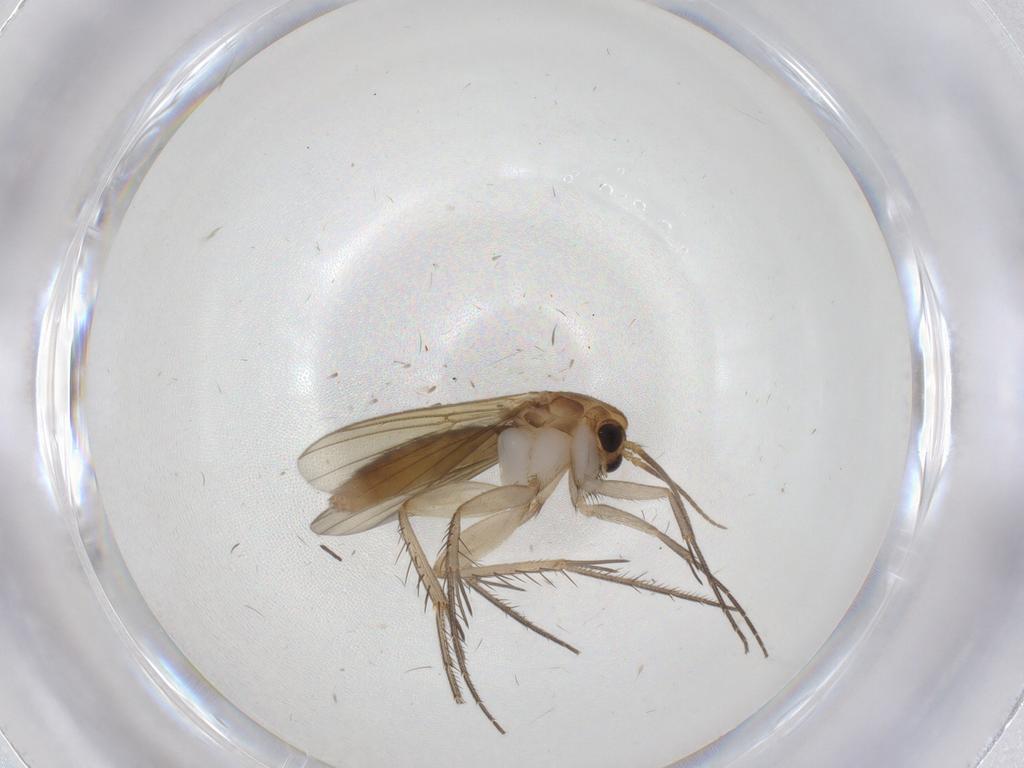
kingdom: Animalia
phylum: Arthropoda
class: Insecta
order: Diptera
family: Mycetophilidae
